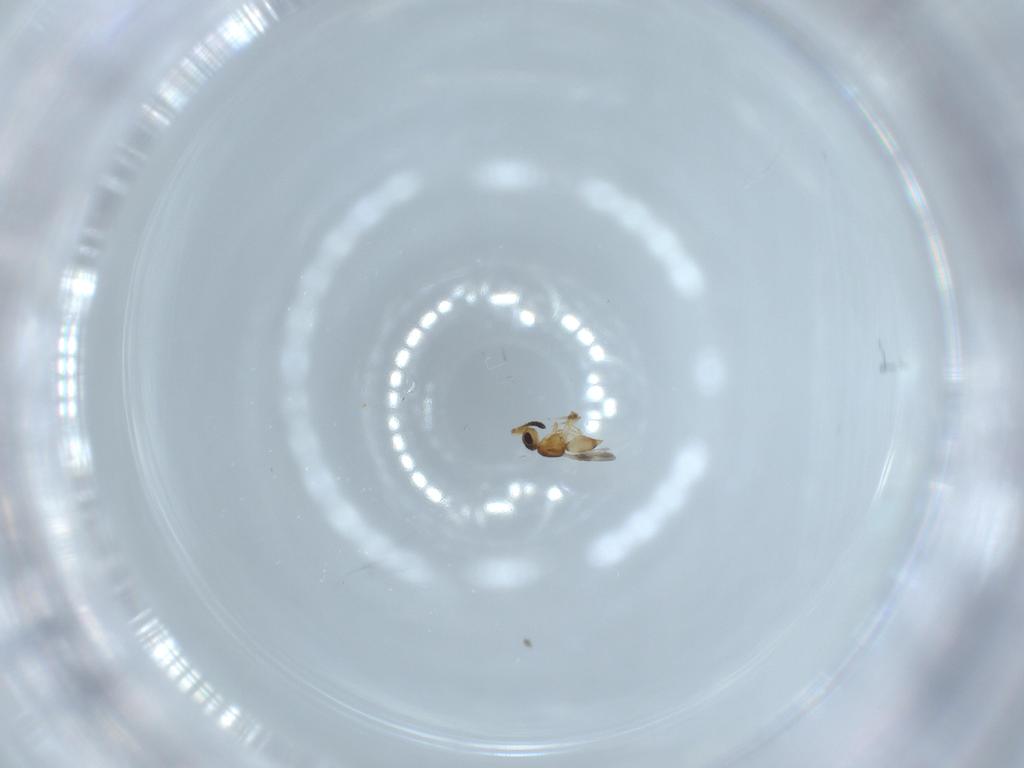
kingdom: Animalia
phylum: Arthropoda
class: Insecta
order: Hymenoptera
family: Ceraphronidae
